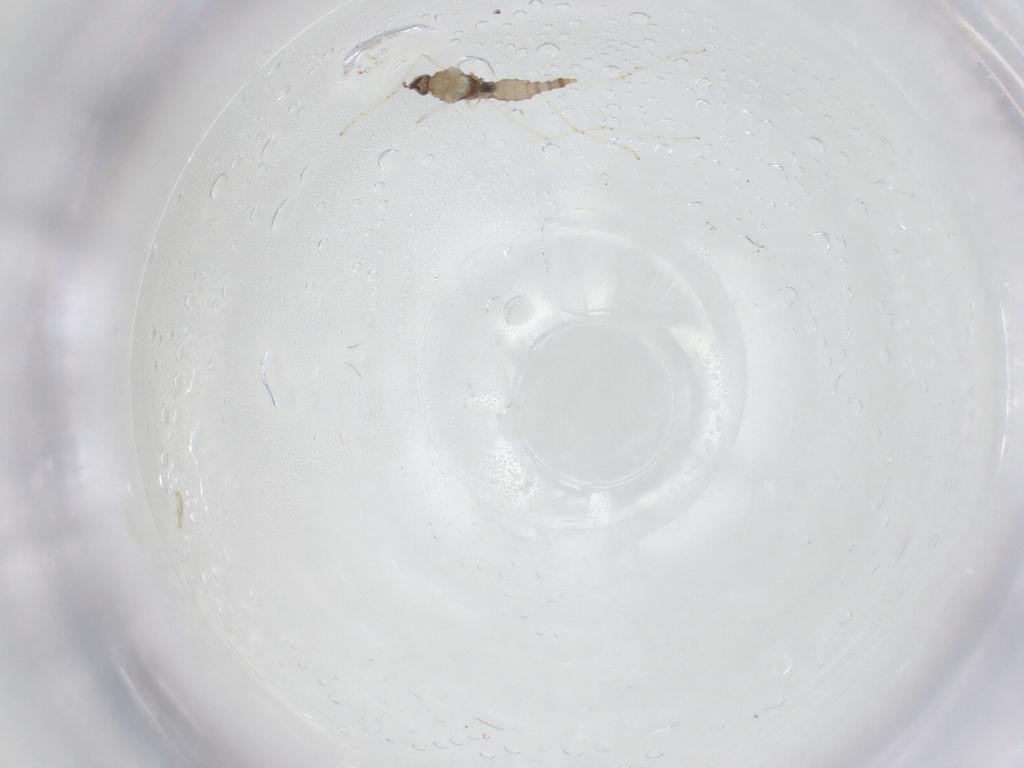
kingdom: Animalia
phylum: Arthropoda
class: Insecta
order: Diptera
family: Cecidomyiidae
